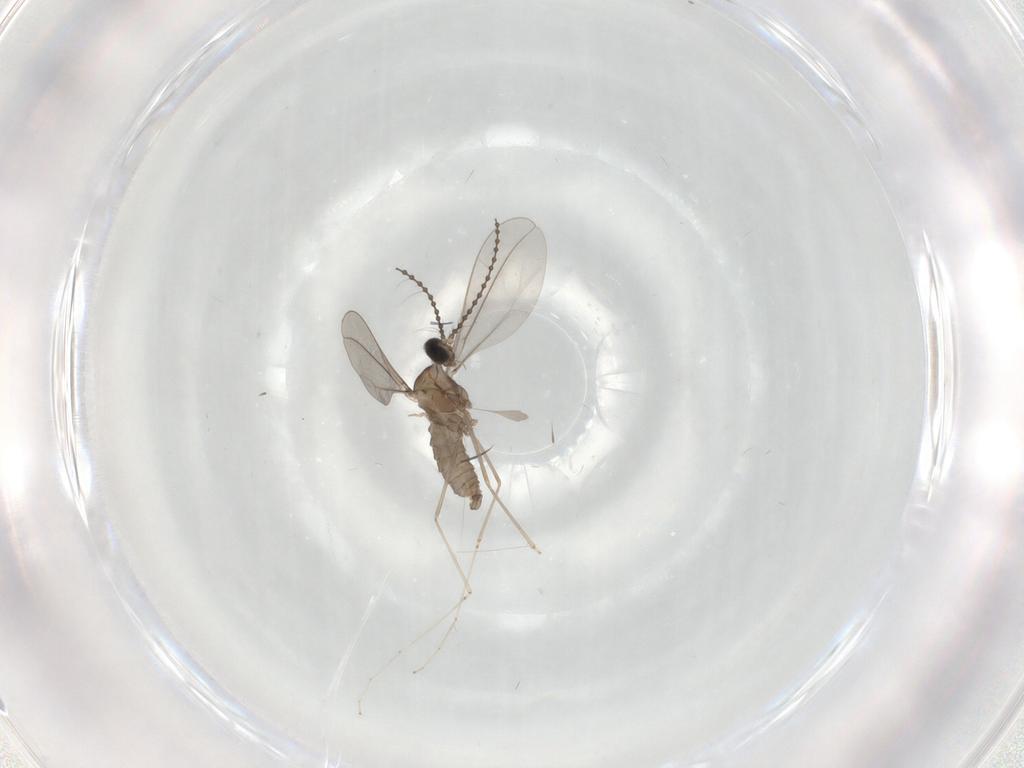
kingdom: Animalia
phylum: Arthropoda
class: Insecta
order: Diptera
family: Cecidomyiidae
